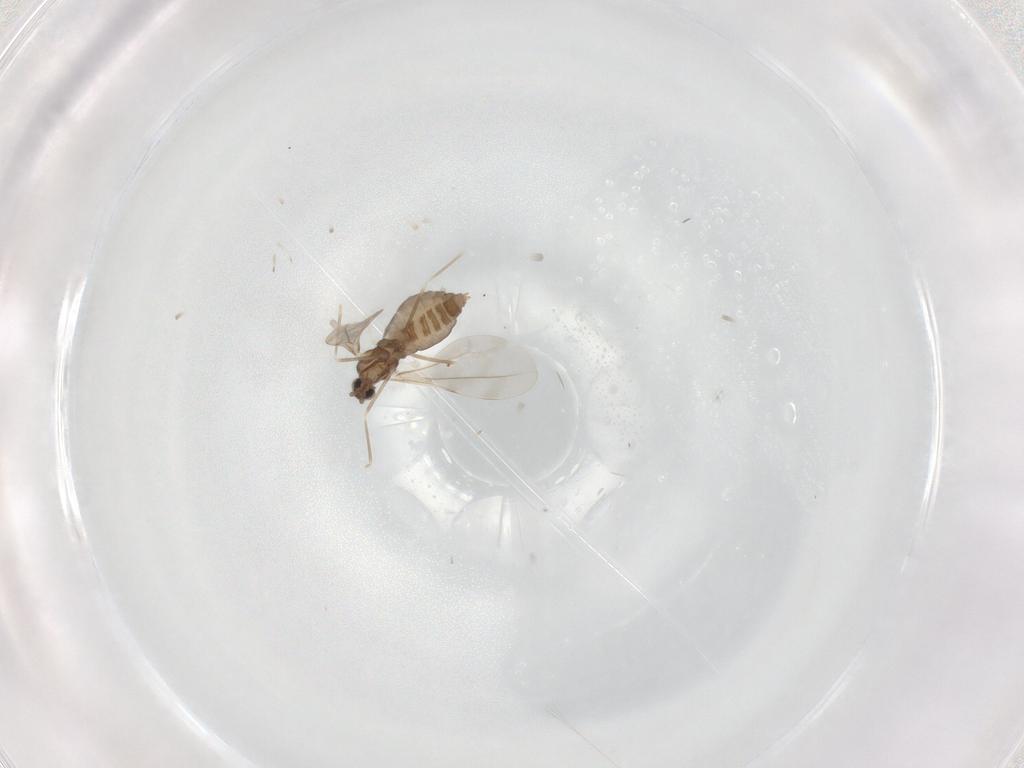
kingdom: Animalia
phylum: Arthropoda
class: Insecta
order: Diptera
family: Cecidomyiidae
